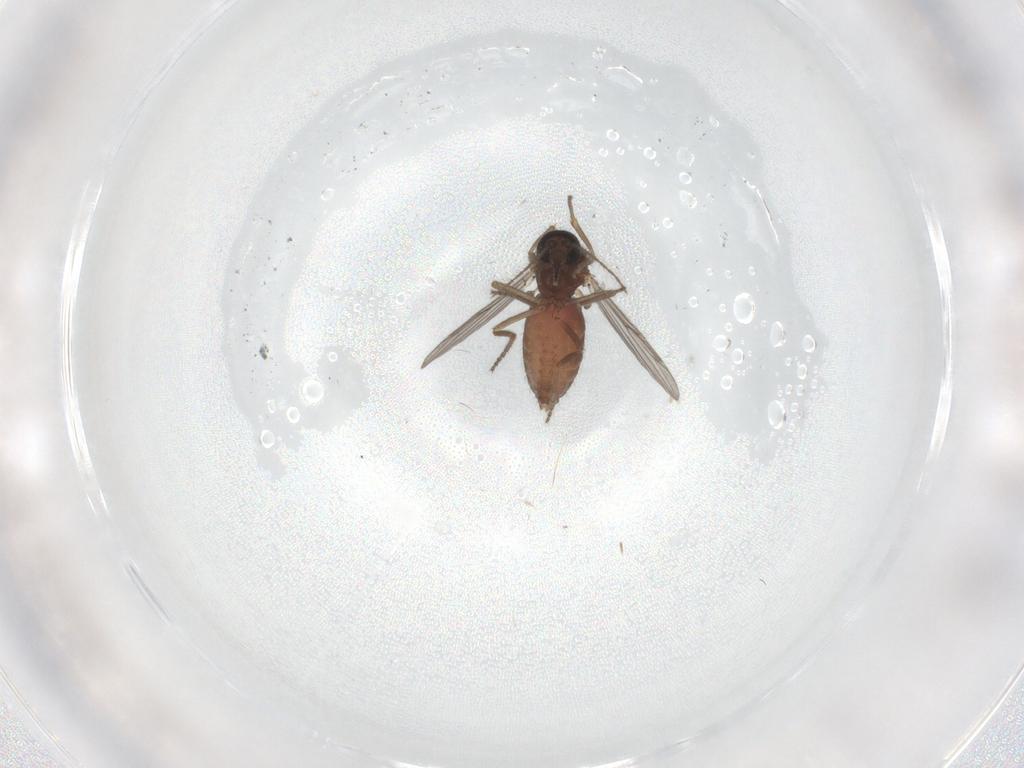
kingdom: Animalia
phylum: Arthropoda
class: Insecta
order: Diptera
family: Ceratopogonidae
